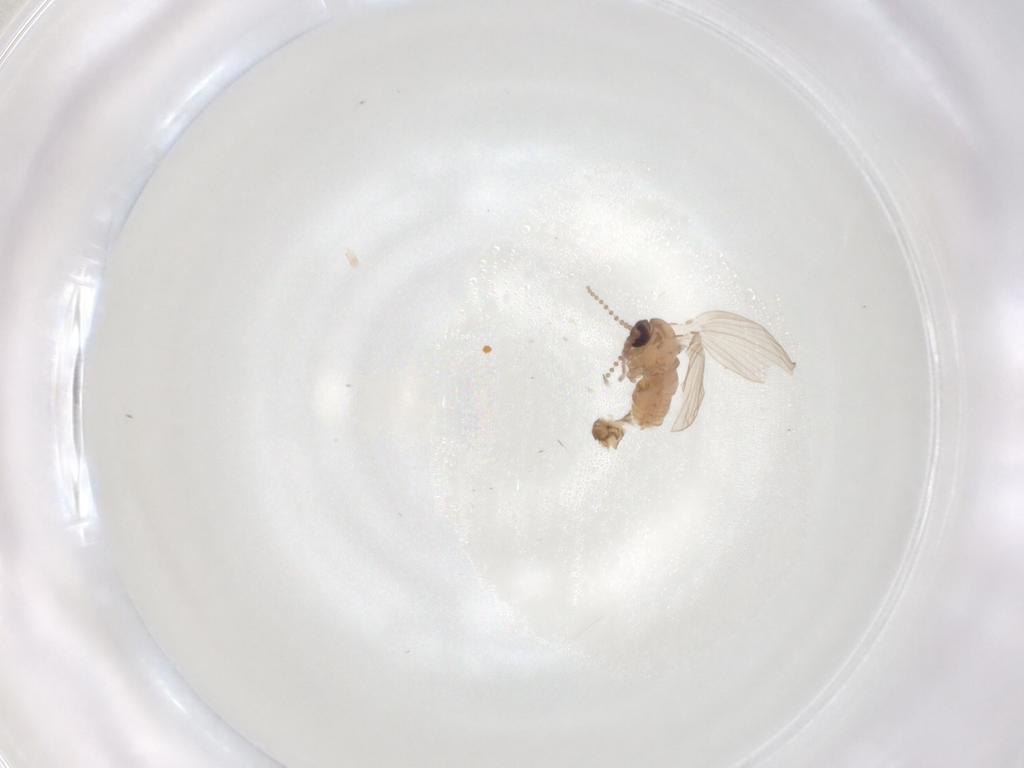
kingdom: Animalia
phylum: Arthropoda
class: Insecta
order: Diptera
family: Psychodidae
